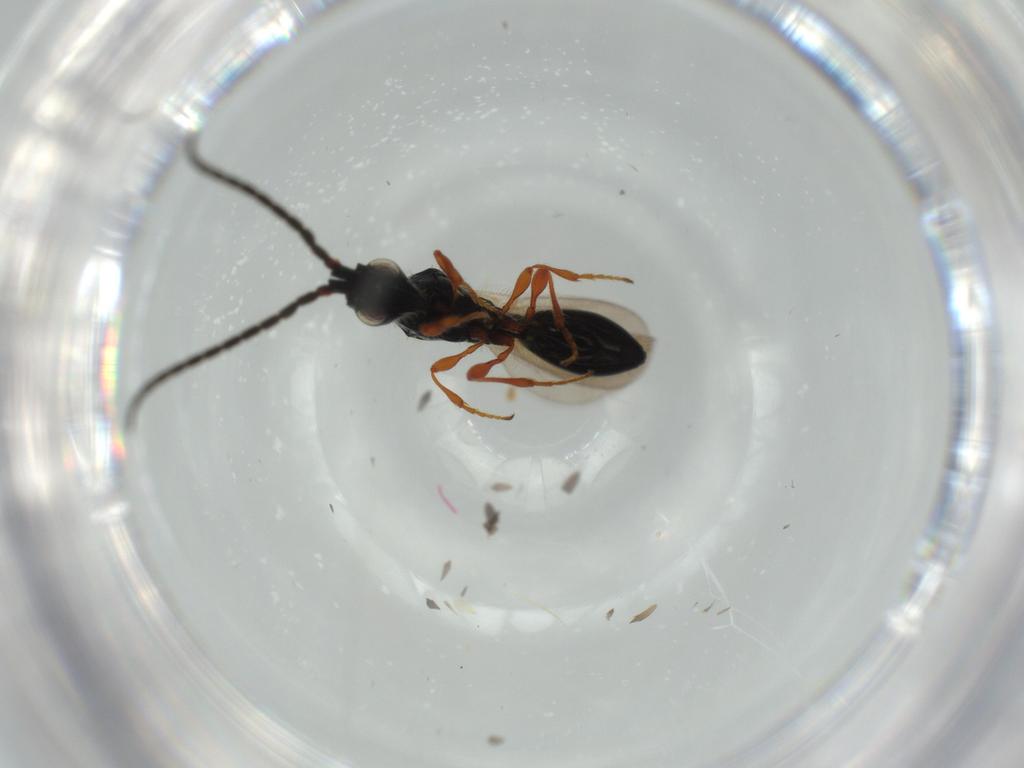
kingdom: Animalia
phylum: Arthropoda
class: Insecta
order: Hymenoptera
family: Diapriidae
